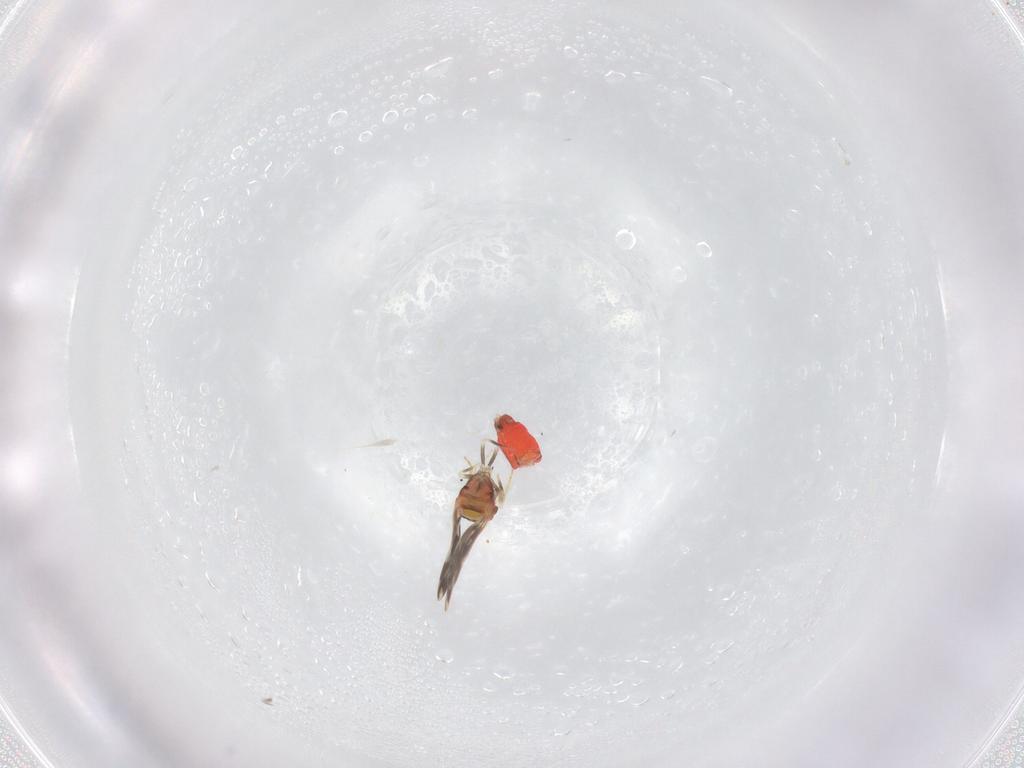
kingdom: Animalia
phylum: Arthropoda
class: Insecta
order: Hemiptera
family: Aleyrodidae
